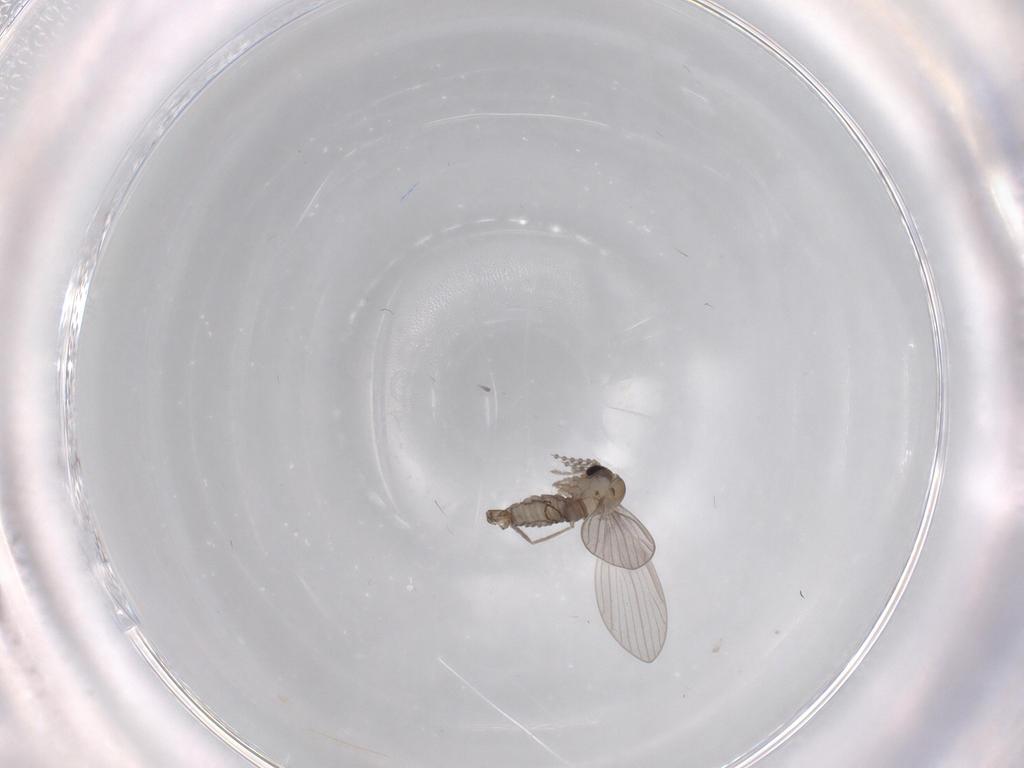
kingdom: Animalia
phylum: Arthropoda
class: Insecta
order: Diptera
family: Psychodidae
